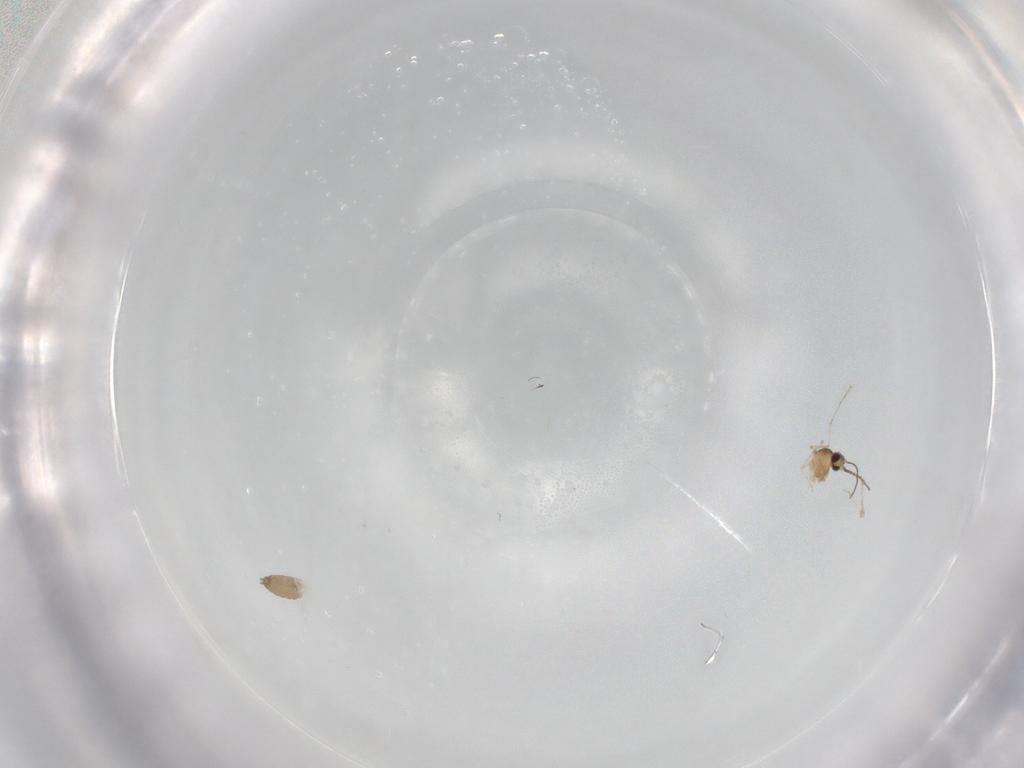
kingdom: Animalia
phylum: Arthropoda
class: Insecta
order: Diptera
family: Cecidomyiidae
